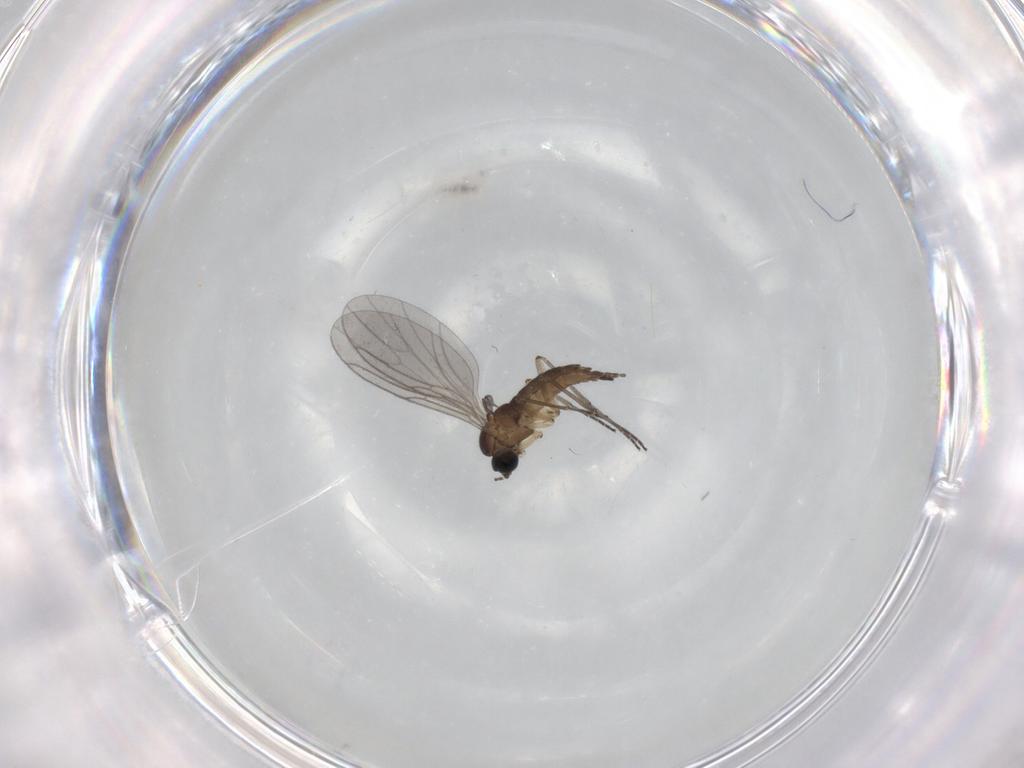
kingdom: Animalia
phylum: Arthropoda
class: Insecta
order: Diptera
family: Sciaridae
